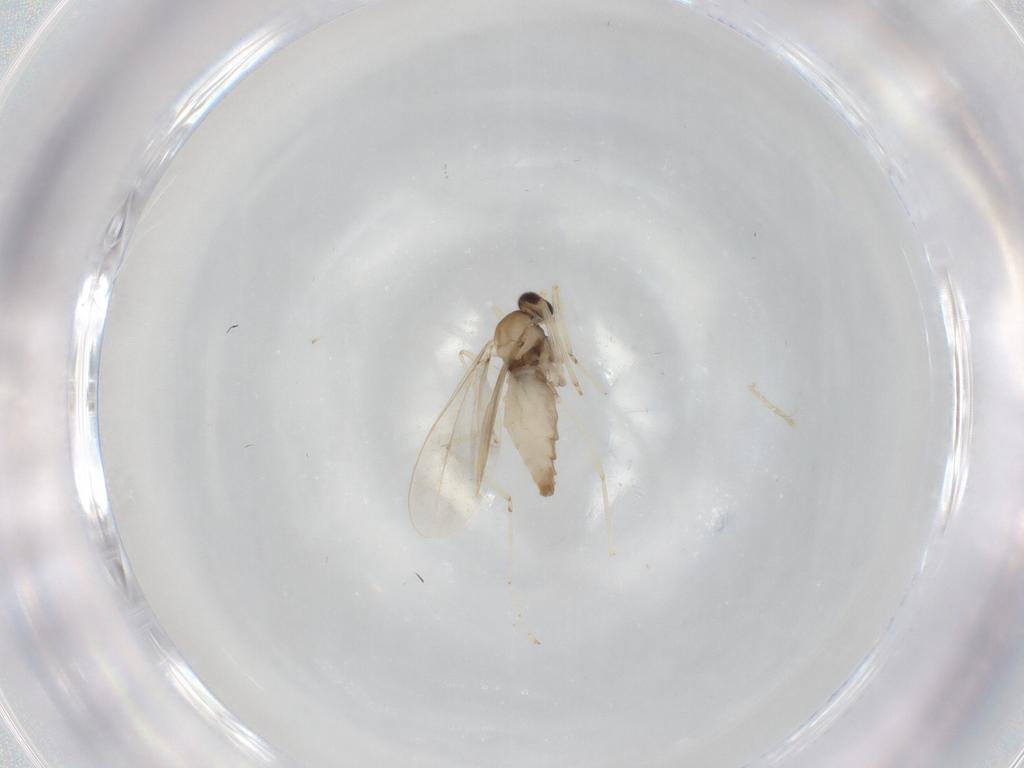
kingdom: Animalia
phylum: Arthropoda
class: Insecta
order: Diptera
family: Cecidomyiidae
